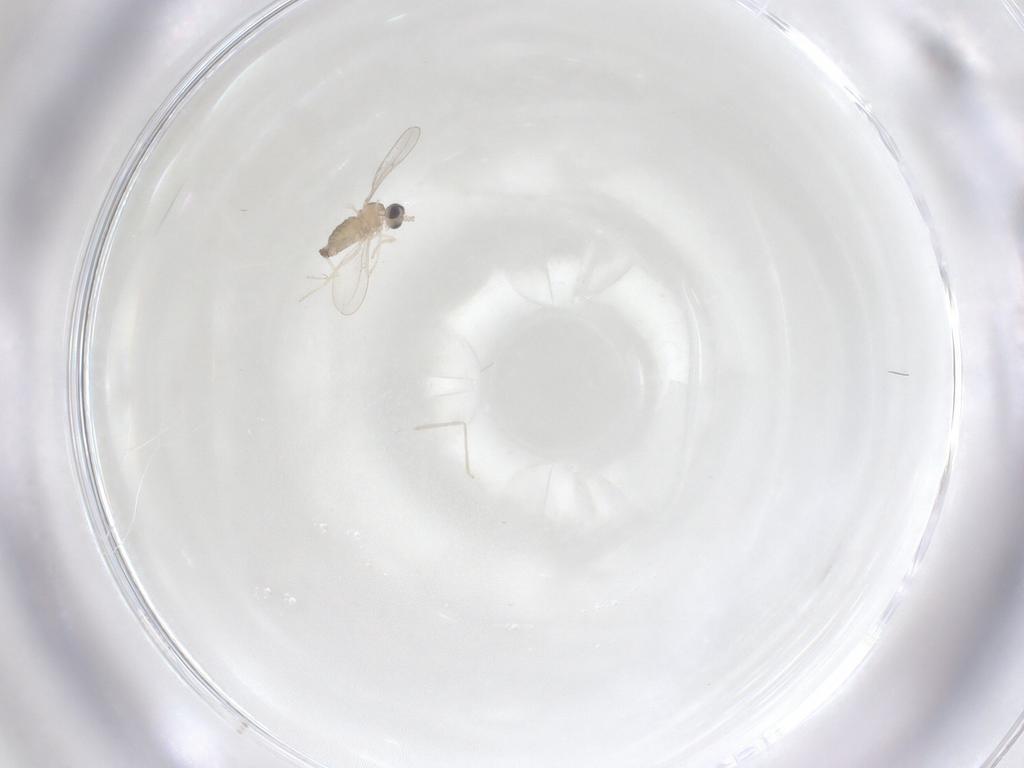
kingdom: Animalia
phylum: Arthropoda
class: Insecta
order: Diptera
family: Cecidomyiidae
